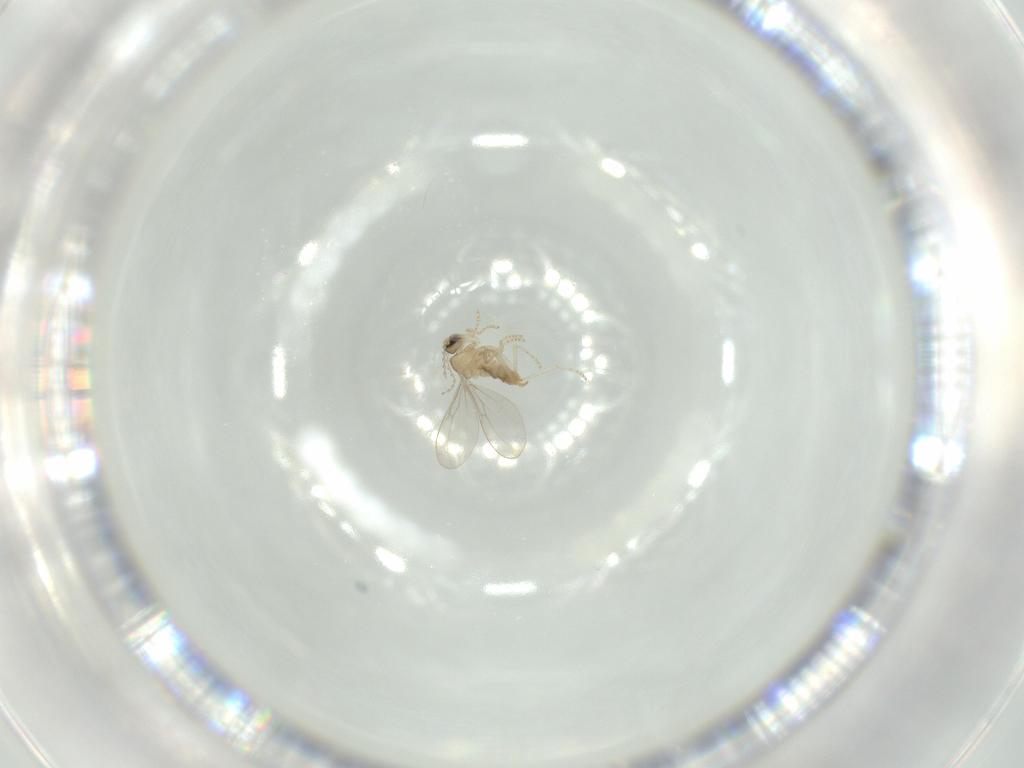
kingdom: Animalia
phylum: Arthropoda
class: Insecta
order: Diptera
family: Cecidomyiidae
